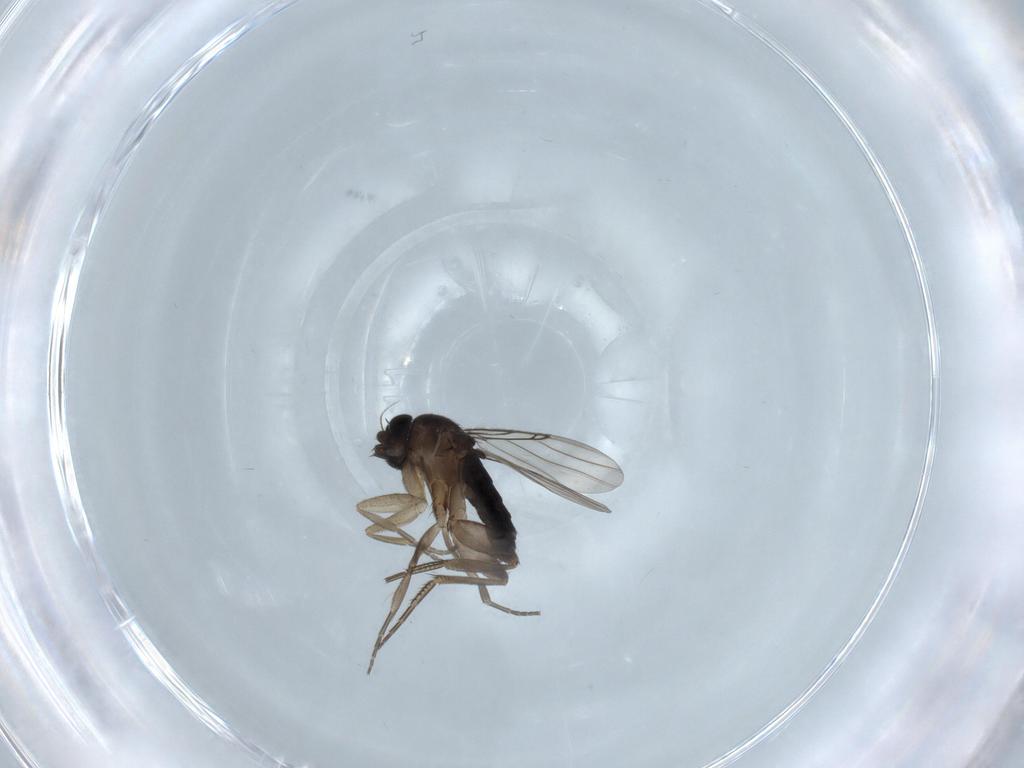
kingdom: Animalia
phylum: Arthropoda
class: Insecta
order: Diptera
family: Phoridae
